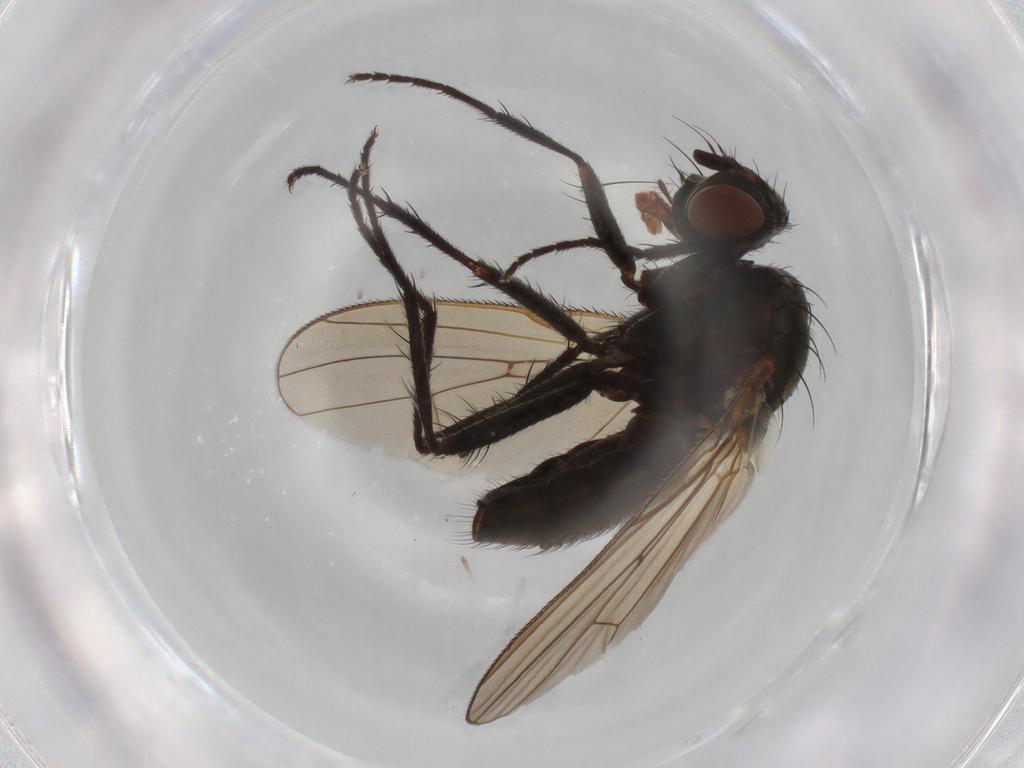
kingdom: Animalia
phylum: Arthropoda
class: Insecta
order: Diptera
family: Anthomyiidae
